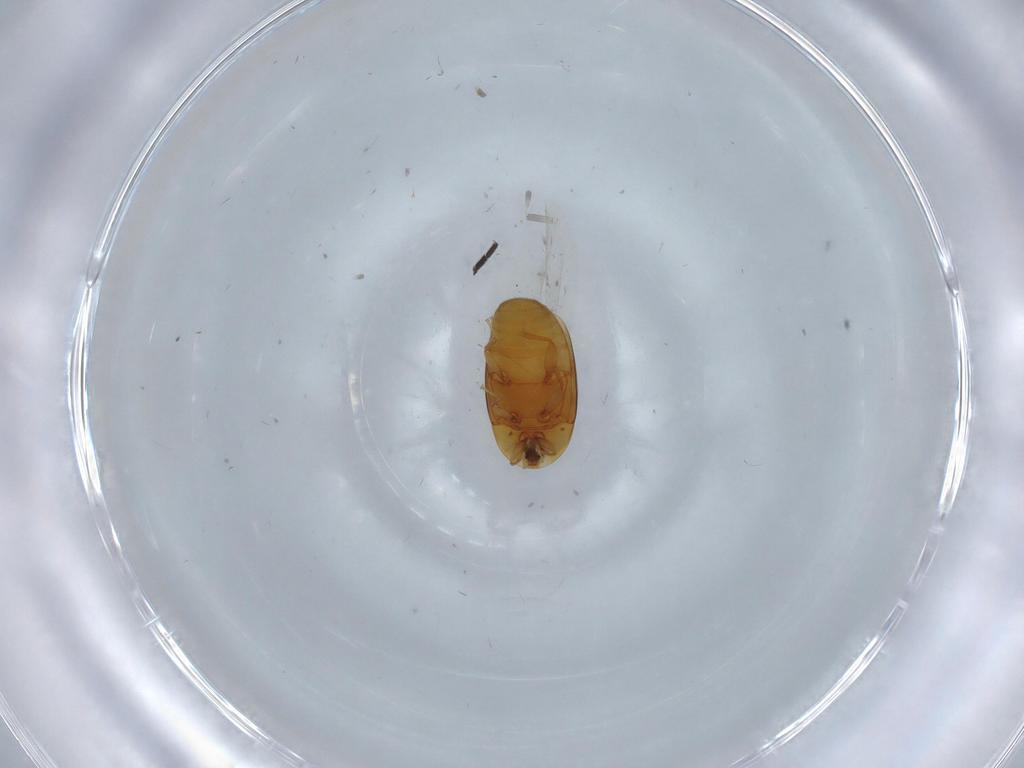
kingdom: Animalia
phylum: Arthropoda
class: Insecta
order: Coleoptera
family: Corylophidae
